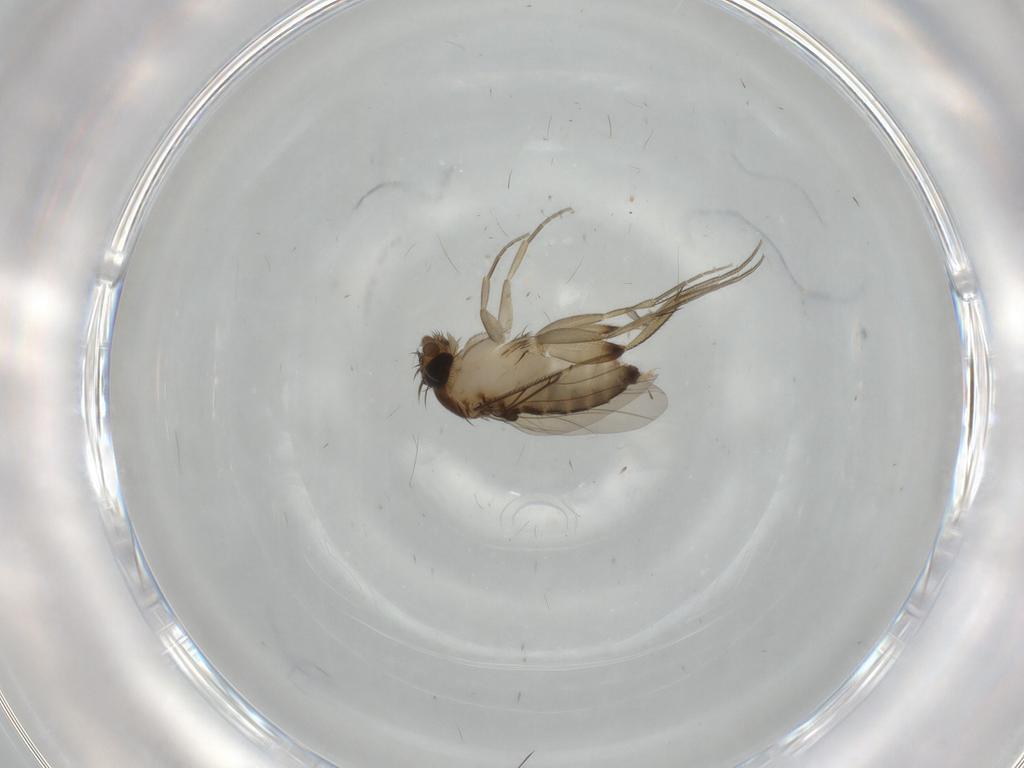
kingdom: Animalia
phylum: Arthropoda
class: Insecta
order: Diptera
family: Phoridae
